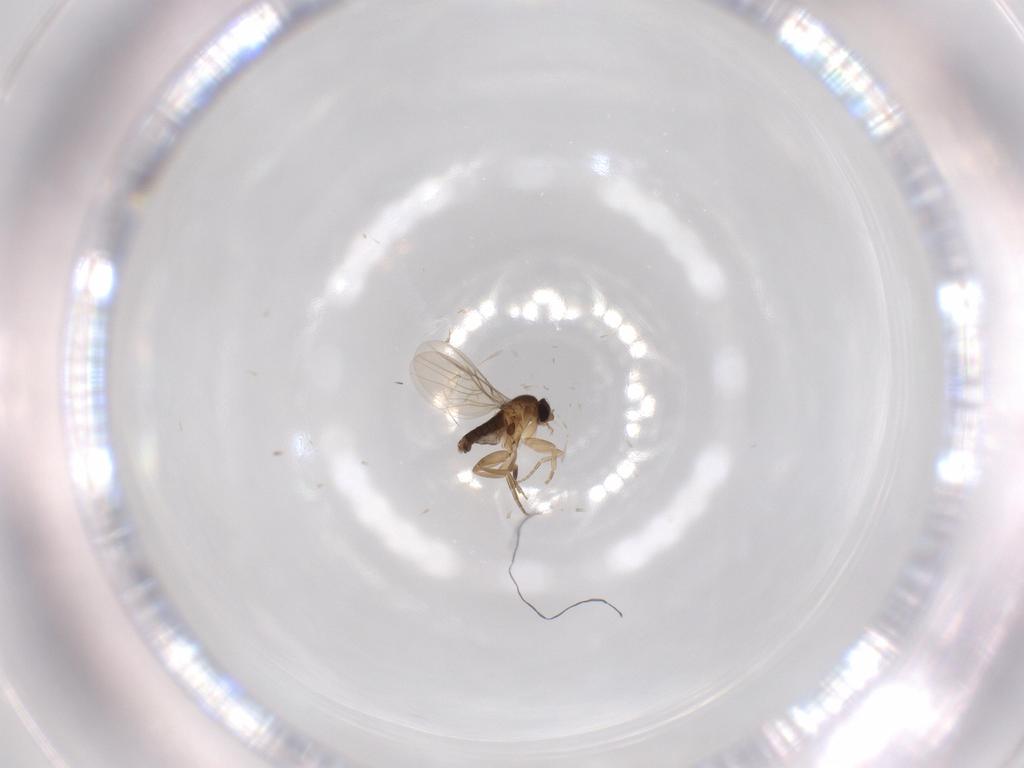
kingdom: Animalia
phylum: Arthropoda
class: Insecta
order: Diptera
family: Phoridae
